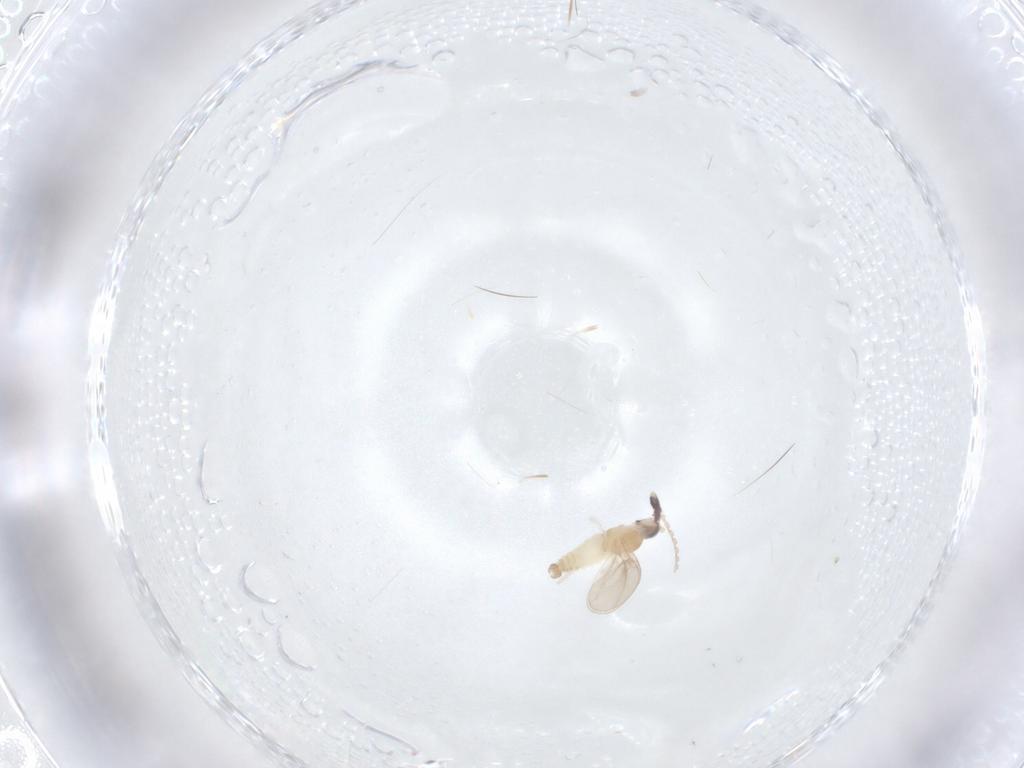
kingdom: Animalia
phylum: Arthropoda
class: Insecta
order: Diptera
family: Cecidomyiidae
